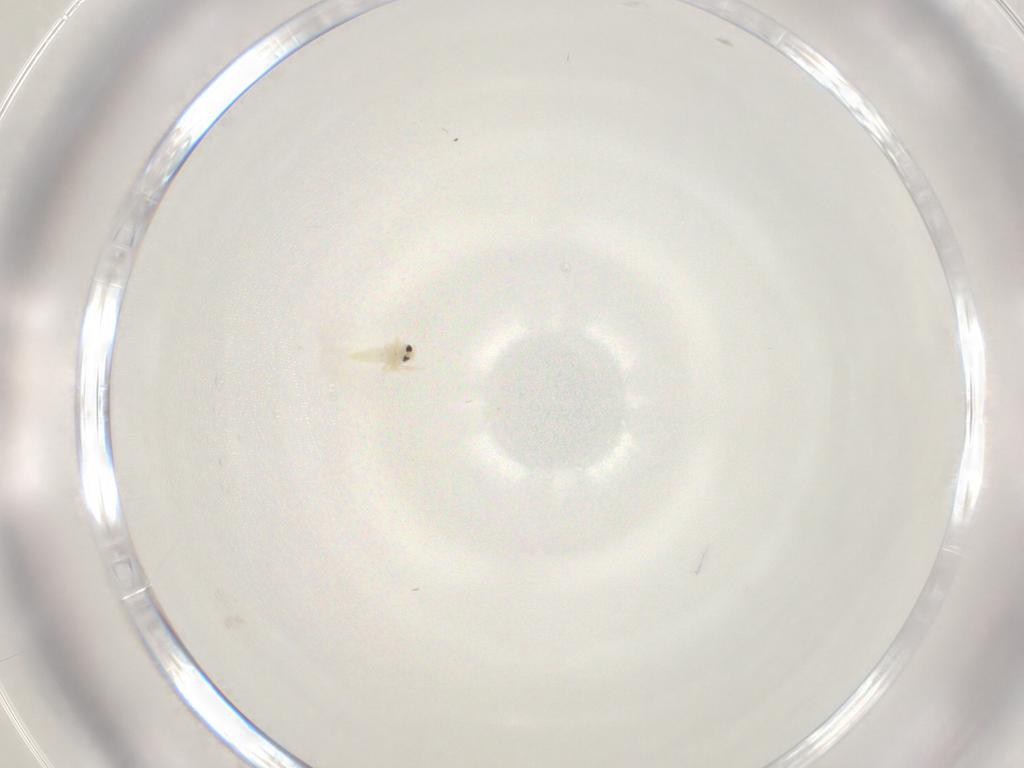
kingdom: Animalia
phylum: Arthropoda
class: Insecta
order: Hemiptera
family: Aleyrodidae
